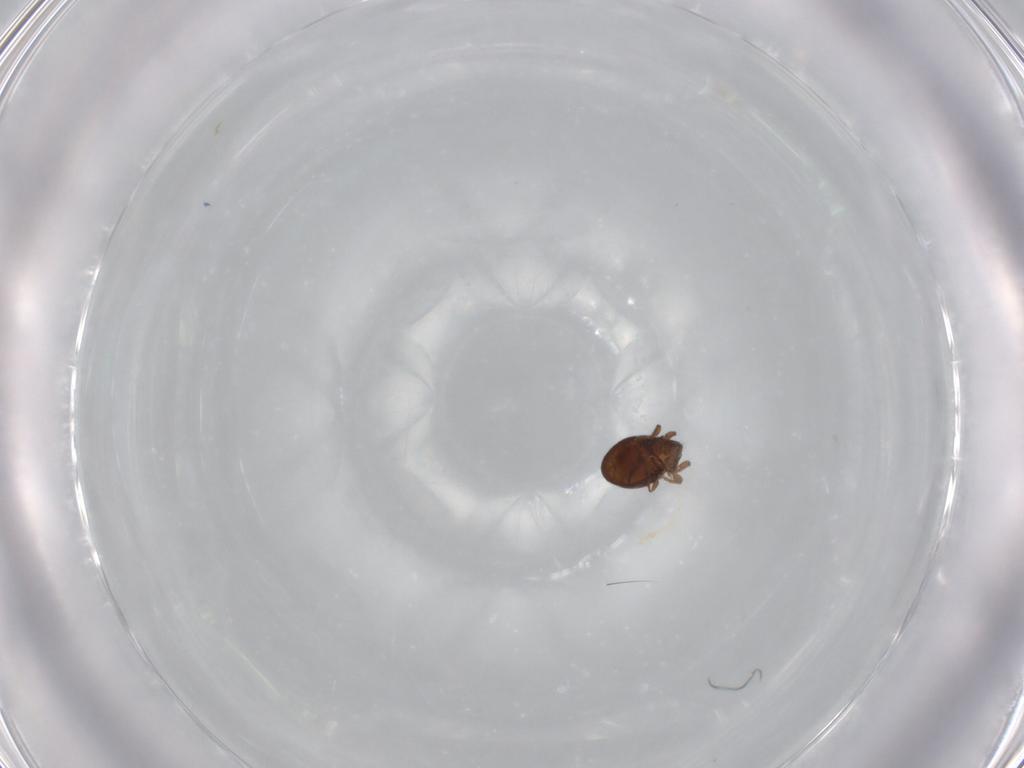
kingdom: Animalia
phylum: Arthropoda
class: Arachnida
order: Sarcoptiformes
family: Oribatulidae
